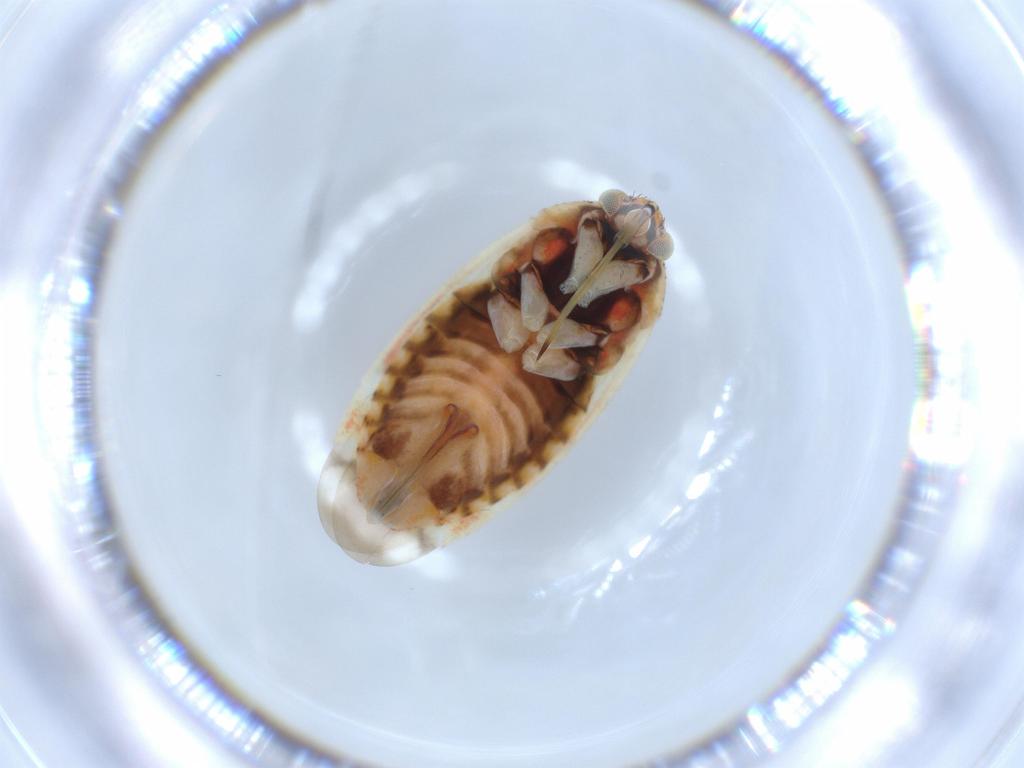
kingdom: Animalia
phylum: Arthropoda
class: Insecta
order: Hemiptera
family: Miridae
